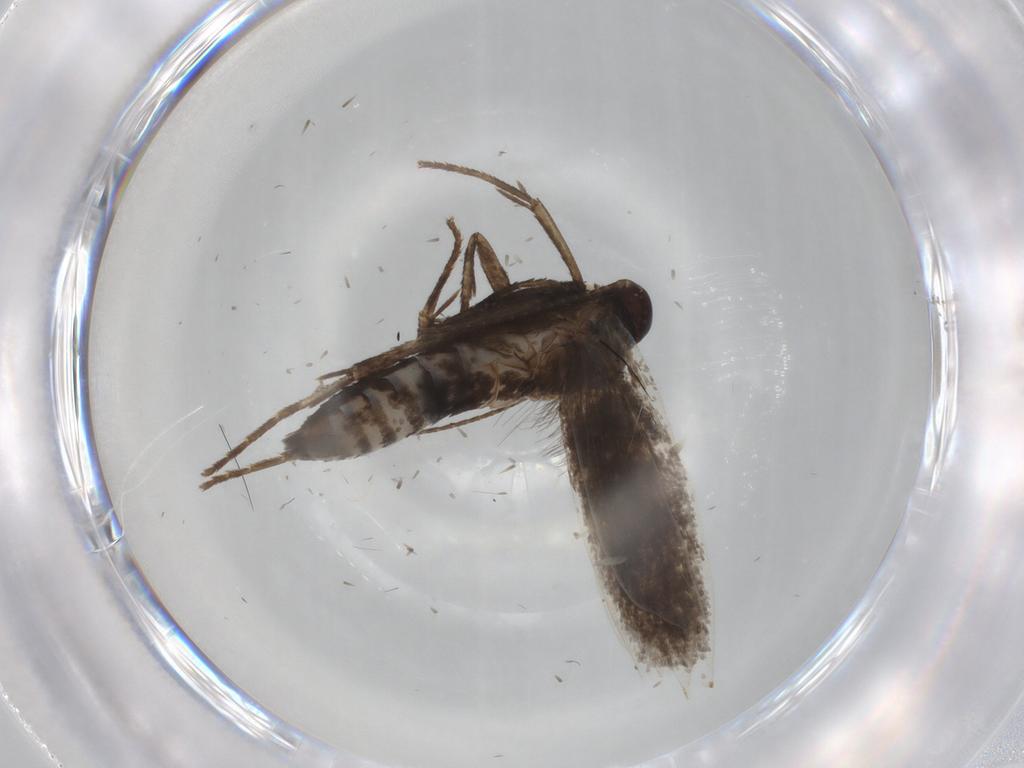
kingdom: Animalia
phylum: Arthropoda
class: Insecta
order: Lepidoptera
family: Gelechiidae
